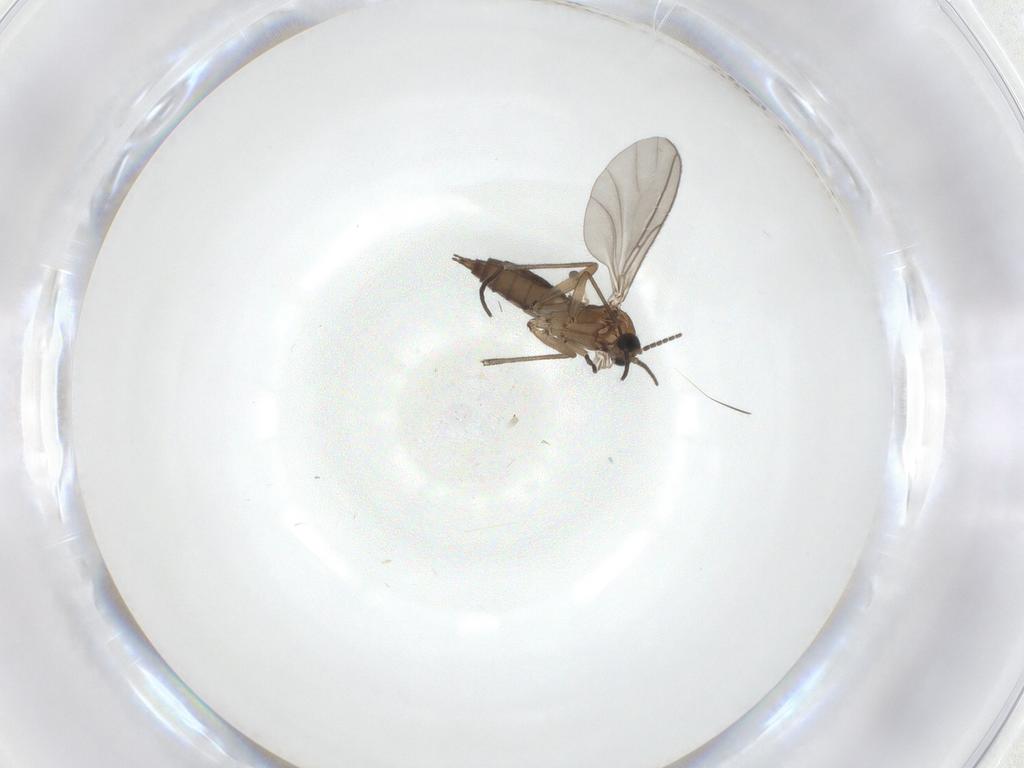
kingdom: Animalia
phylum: Arthropoda
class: Insecta
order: Diptera
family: Sciaridae
